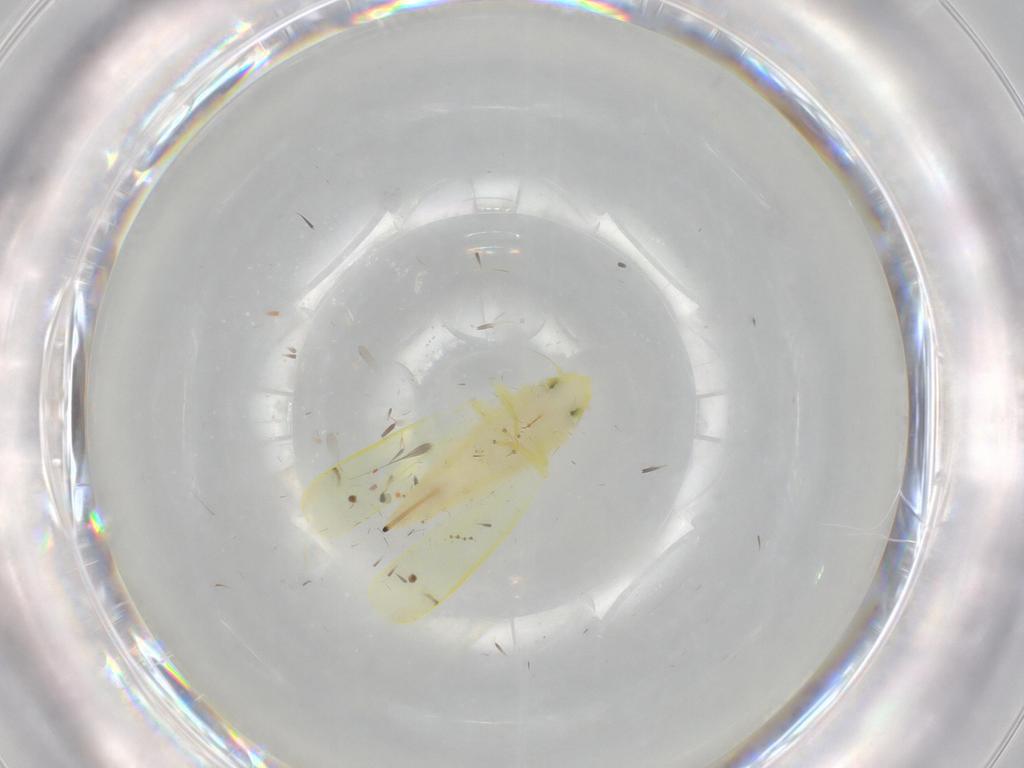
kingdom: Animalia
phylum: Arthropoda
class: Insecta
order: Hemiptera
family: Cicadellidae
